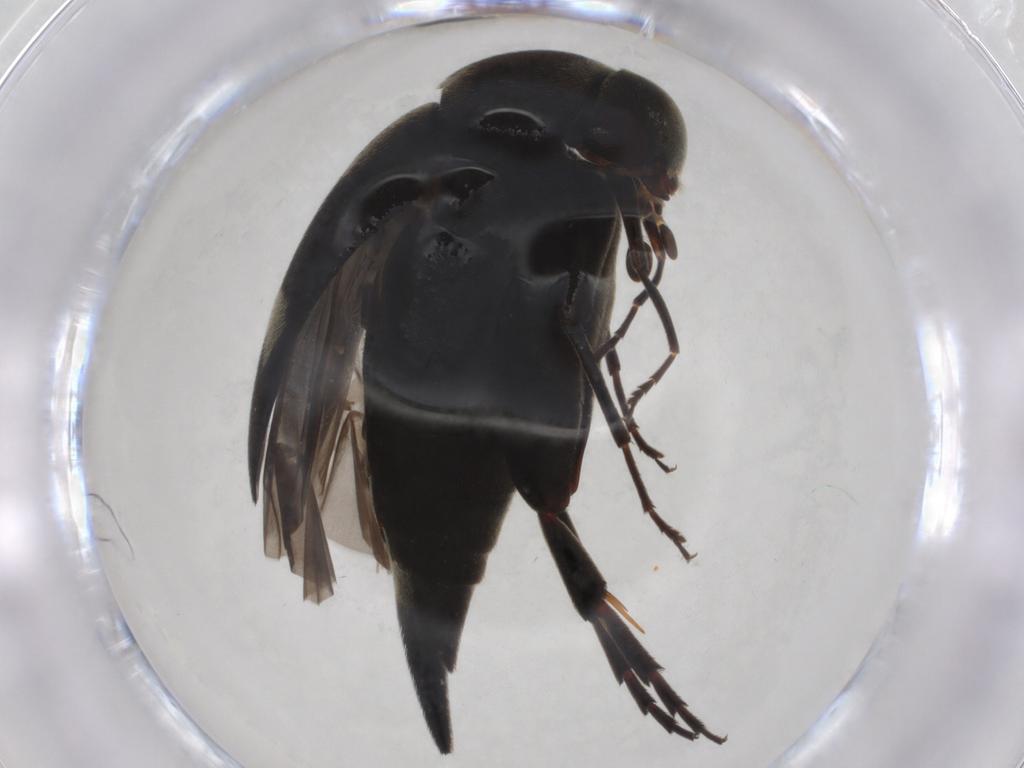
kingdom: Animalia
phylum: Arthropoda
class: Insecta
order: Coleoptera
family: Mordellidae
